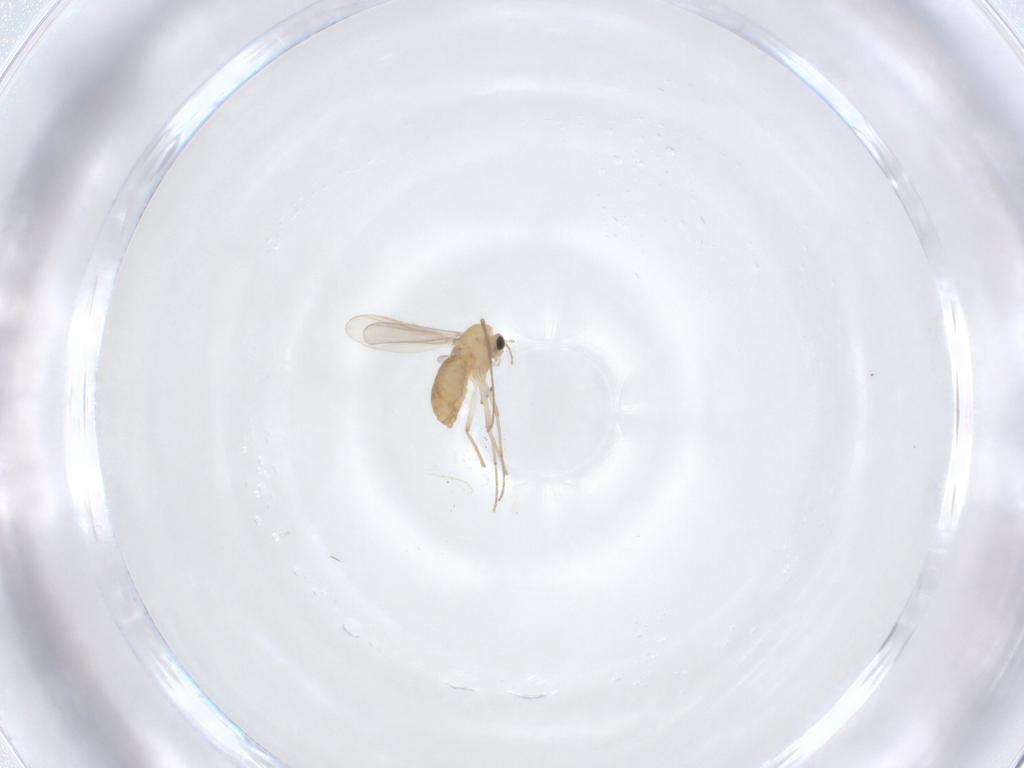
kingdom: Animalia
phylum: Arthropoda
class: Insecta
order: Diptera
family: Chironomidae
